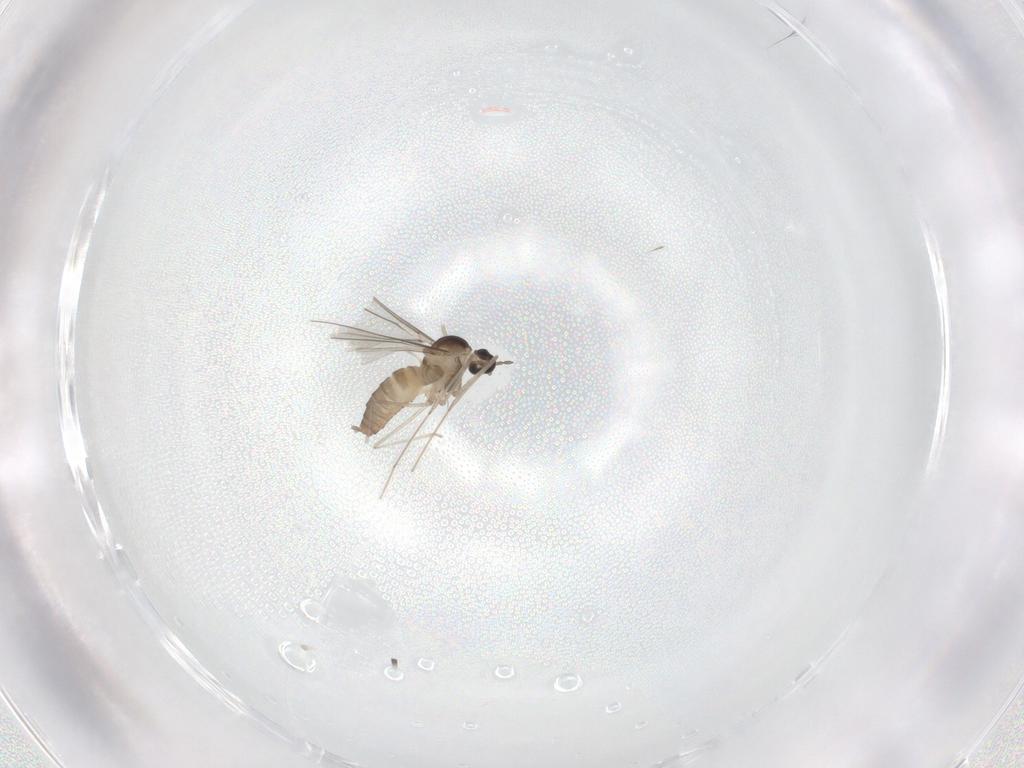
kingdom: Animalia
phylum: Arthropoda
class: Insecta
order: Diptera
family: Cecidomyiidae
